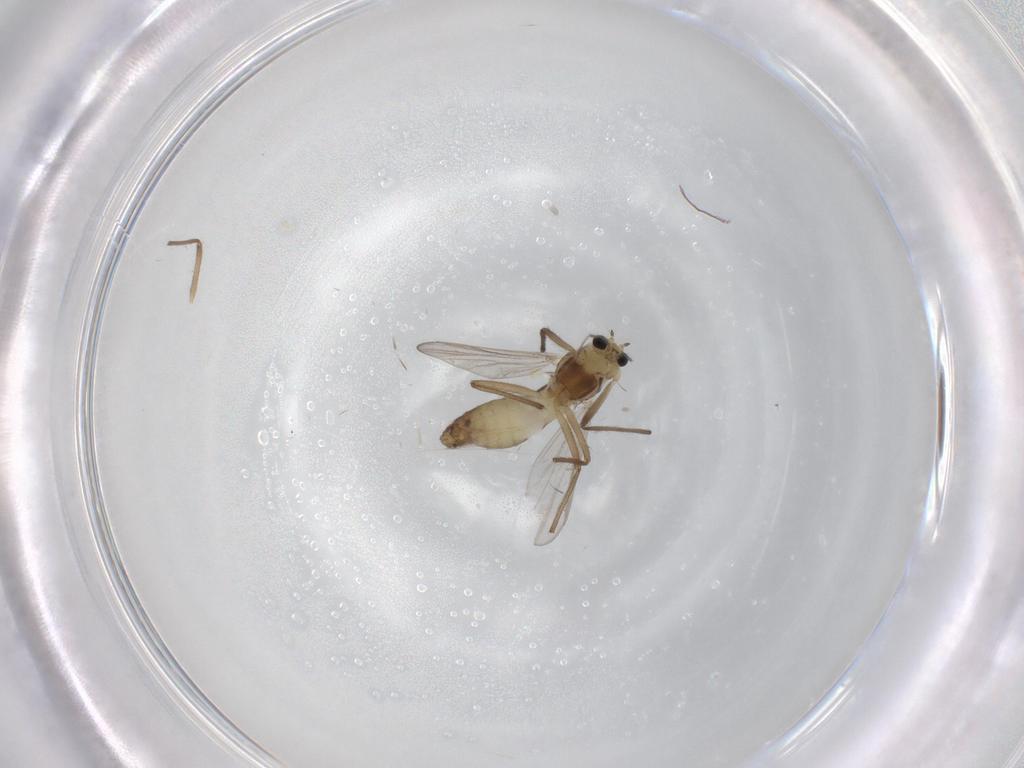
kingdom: Animalia
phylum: Arthropoda
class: Insecta
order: Diptera
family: Chironomidae
